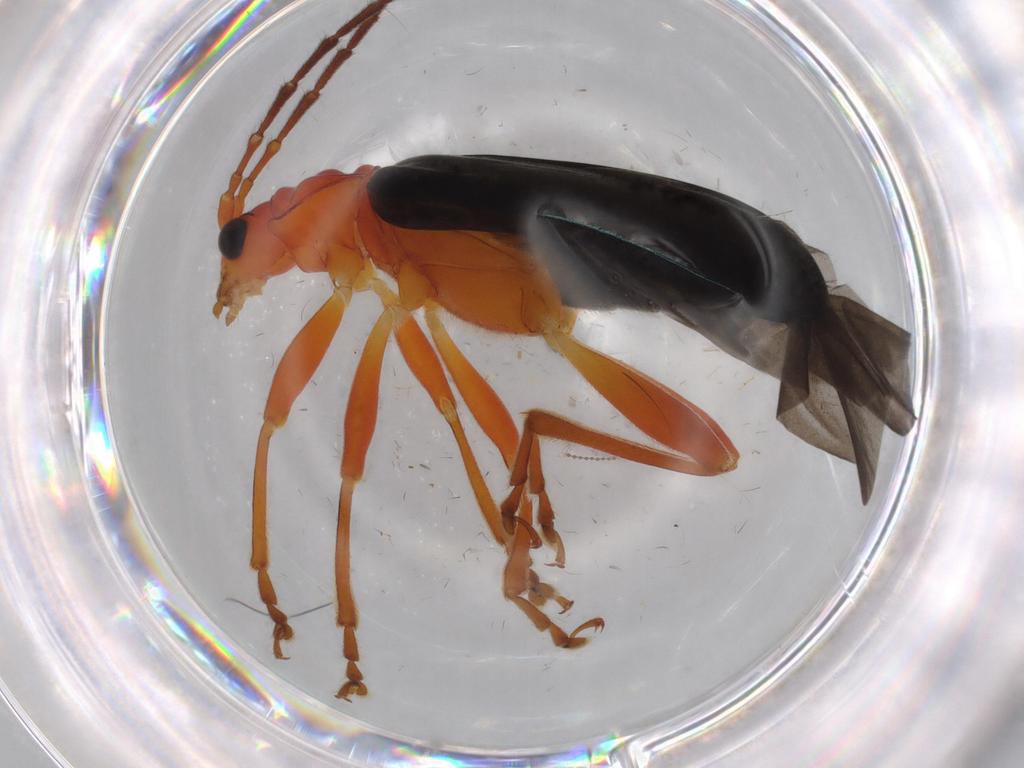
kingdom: Animalia
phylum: Arthropoda
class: Insecta
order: Coleoptera
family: Chrysomelidae
